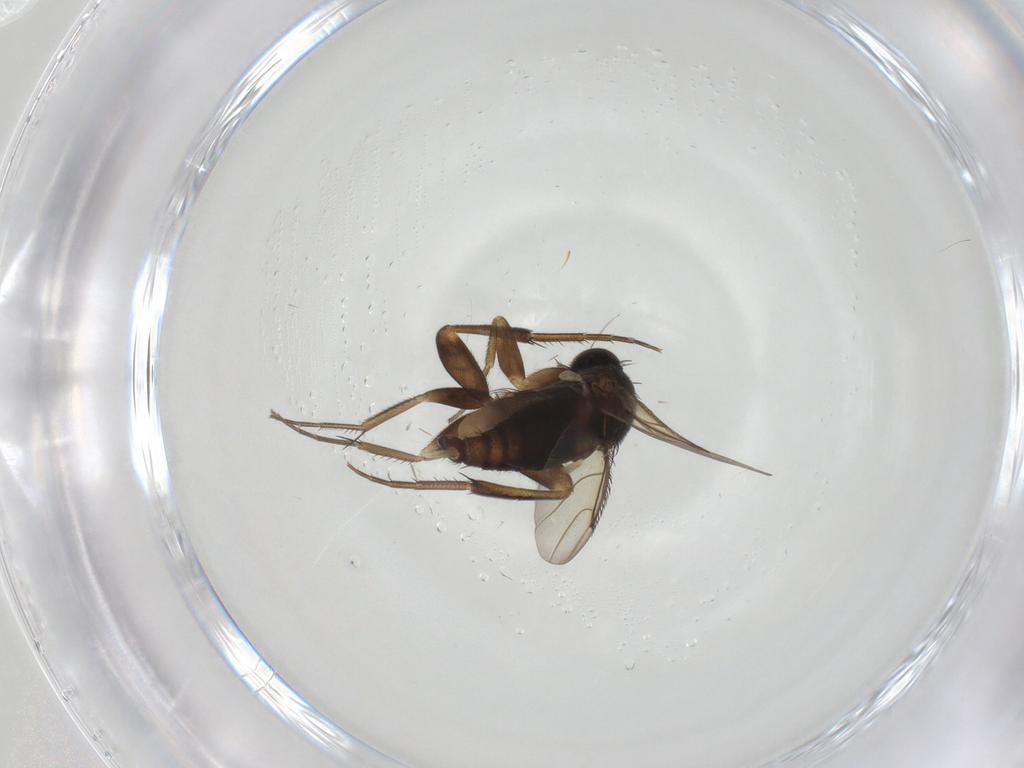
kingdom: Animalia
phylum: Arthropoda
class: Insecta
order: Diptera
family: Phoridae
